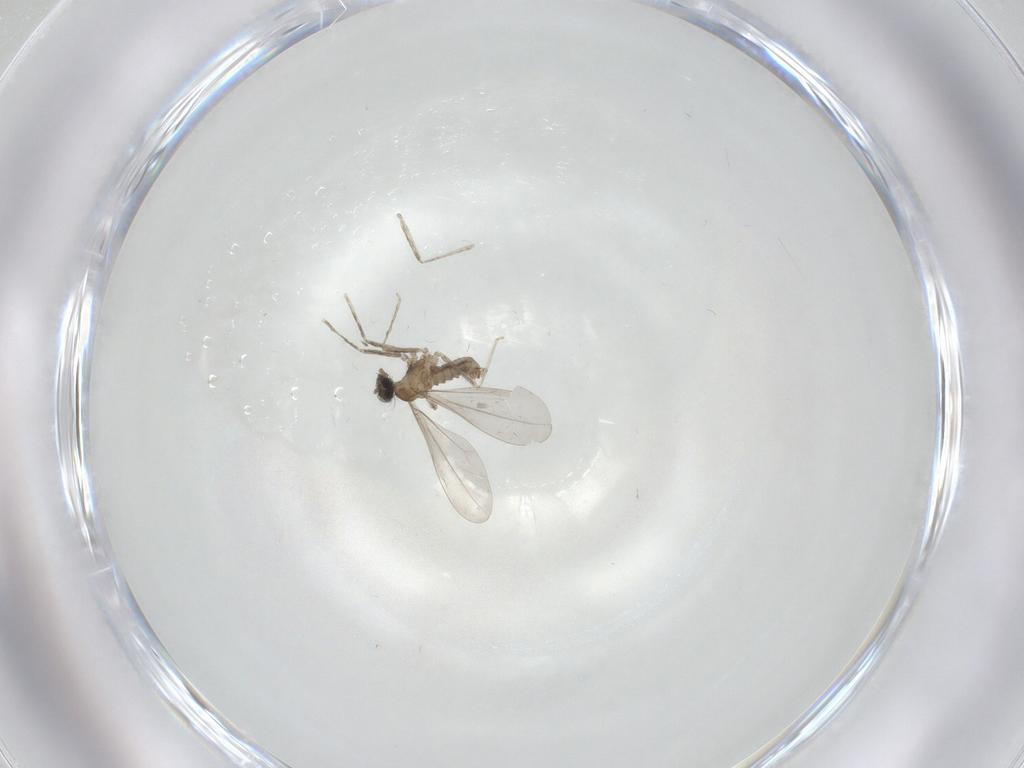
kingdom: Animalia
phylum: Arthropoda
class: Insecta
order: Diptera
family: Cecidomyiidae
